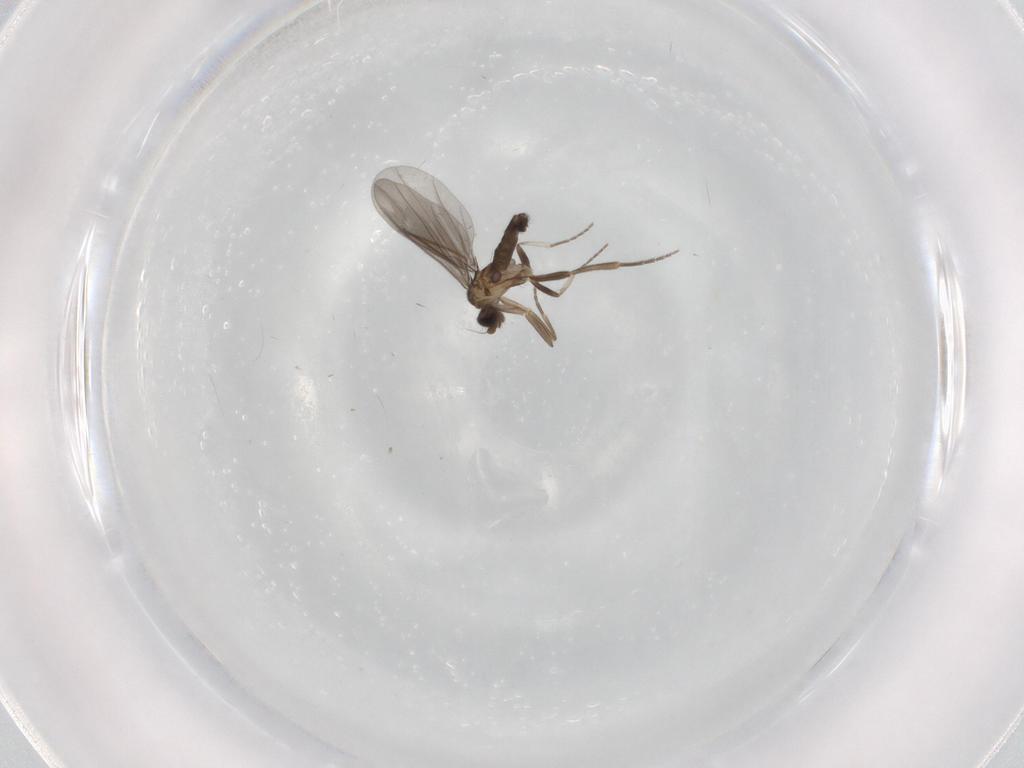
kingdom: Animalia
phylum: Arthropoda
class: Insecta
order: Diptera
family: Phoridae
